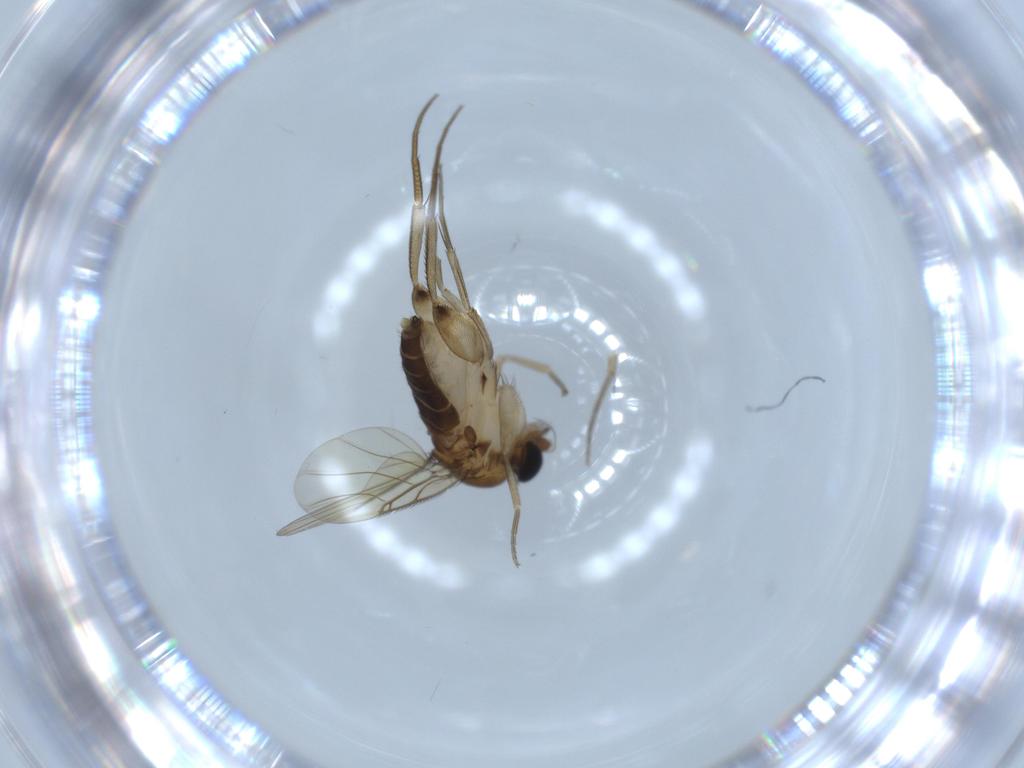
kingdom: Animalia
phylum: Arthropoda
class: Insecta
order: Diptera
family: Phoridae
